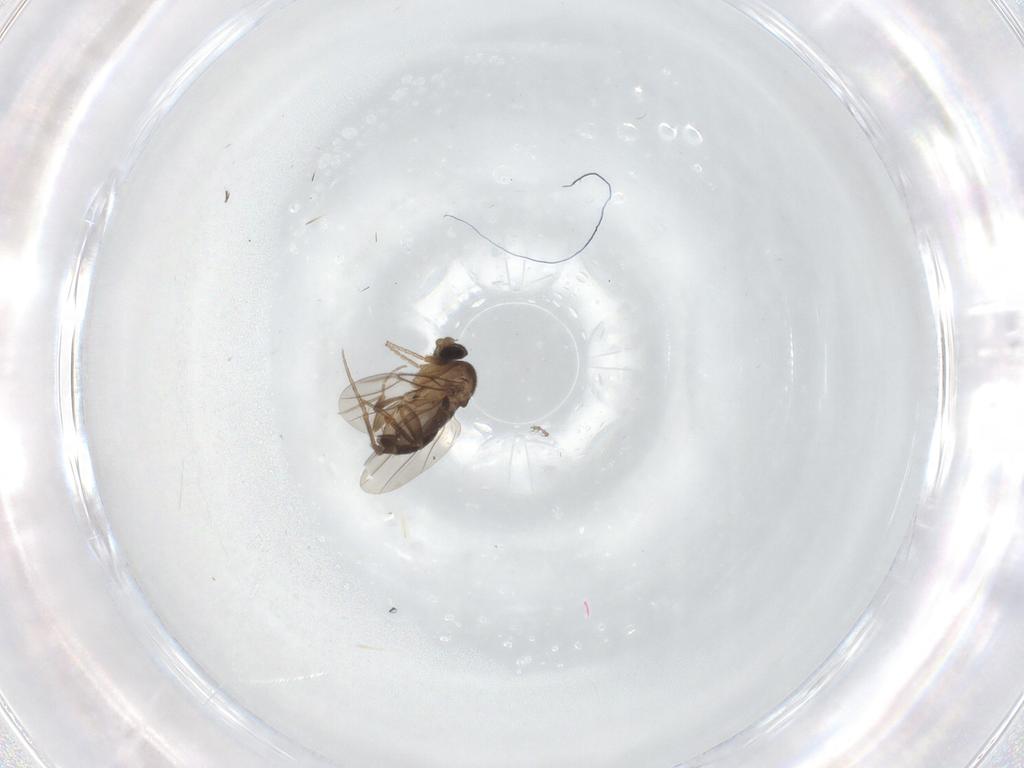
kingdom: Animalia
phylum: Arthropoda
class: Insecta
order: Diptera
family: Phoridae
